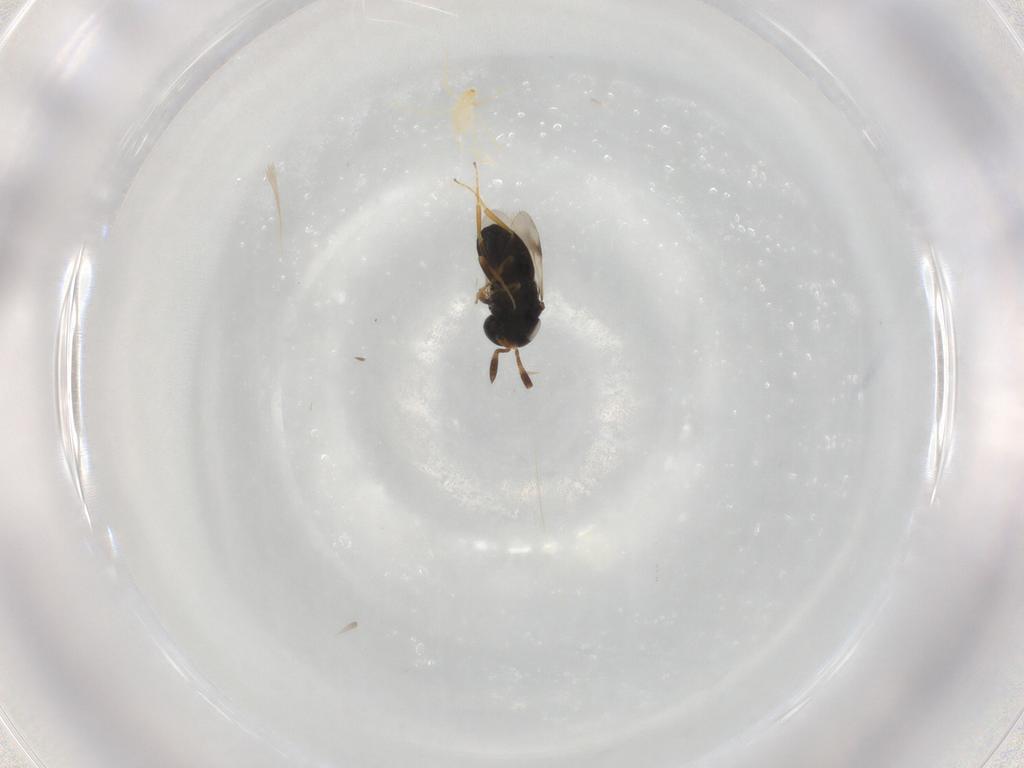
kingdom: Animalia
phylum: Arthropoda
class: Insecta
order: Hymenoptera
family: Scelionidae
